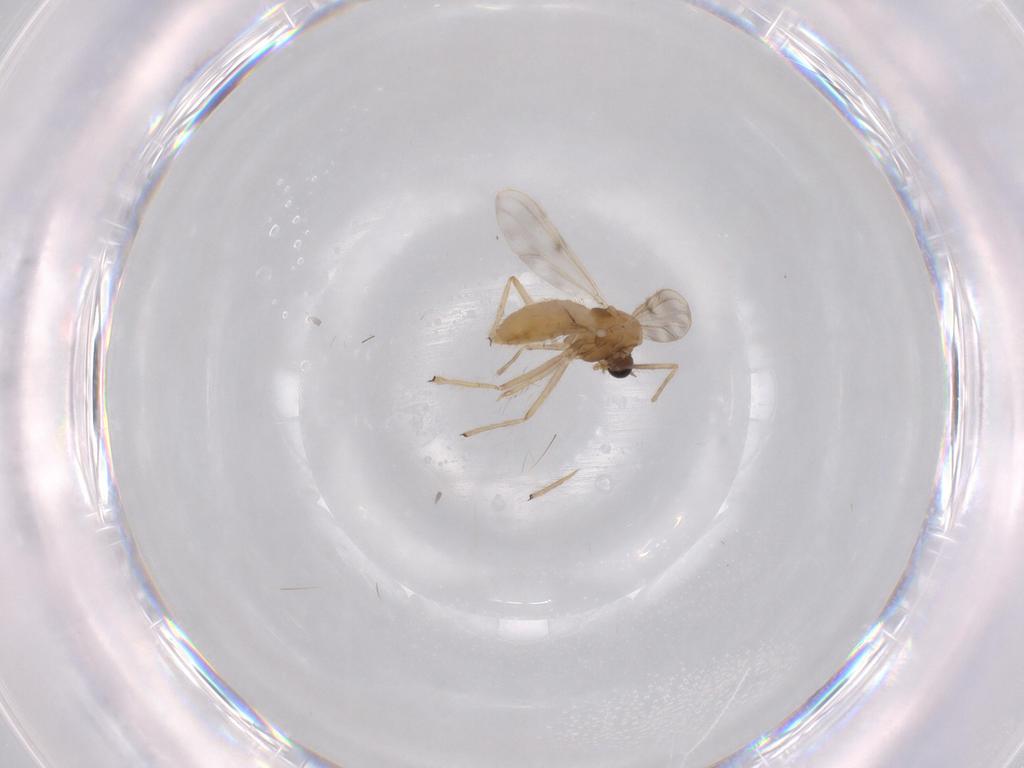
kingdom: Animalia
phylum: Arthropoda
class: Insecta
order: Diptera
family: Chironomidae
